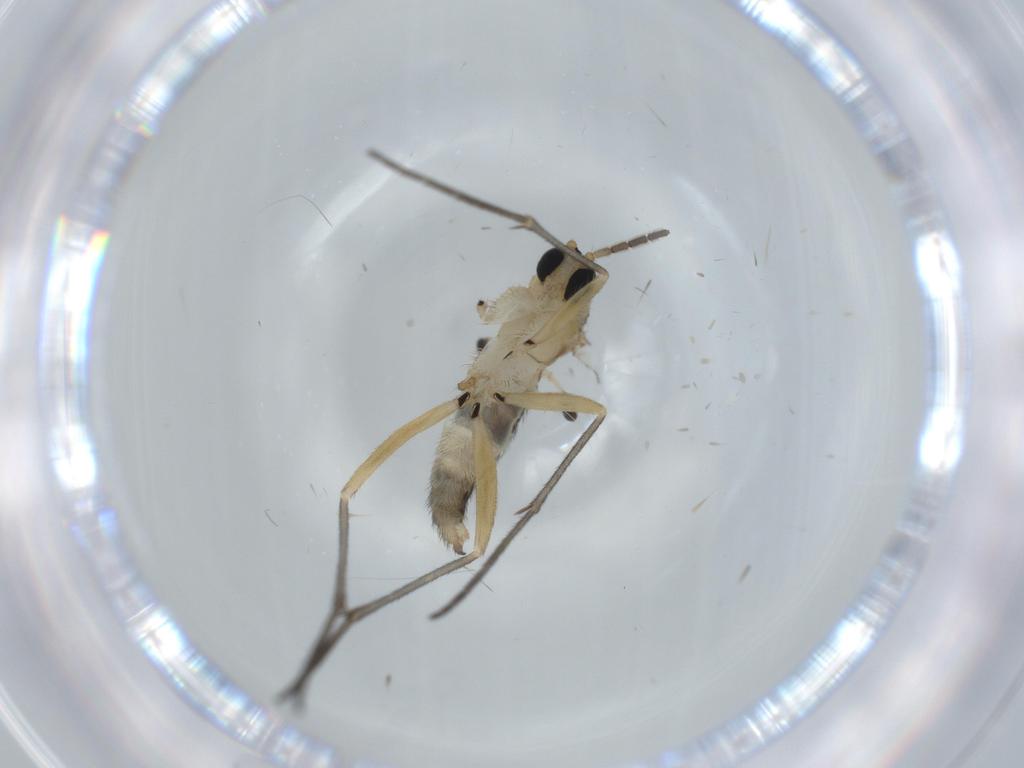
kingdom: Animalia
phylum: Arthropoda
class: Insecta
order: Diptera
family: Sciaridae
